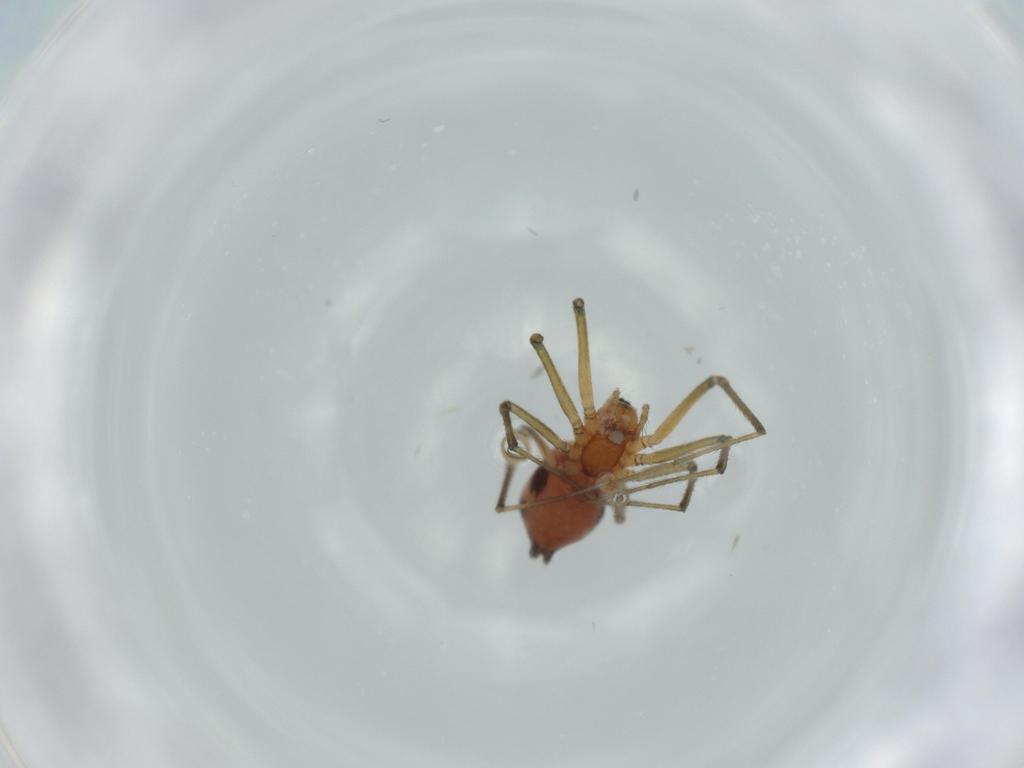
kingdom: Animalia
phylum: Arthropoda
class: Arachnida
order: Araneae
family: Linyphiidae
